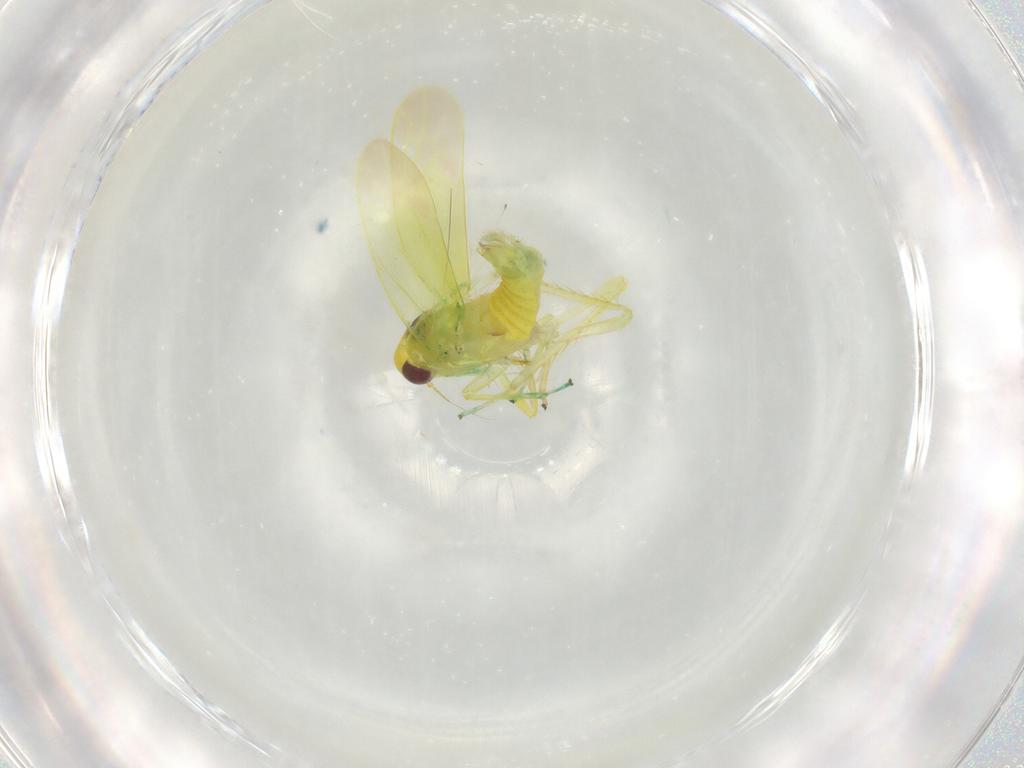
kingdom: Animalia
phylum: Arthropoda
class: Insecta
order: Hemiptera
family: Cicadellidae
